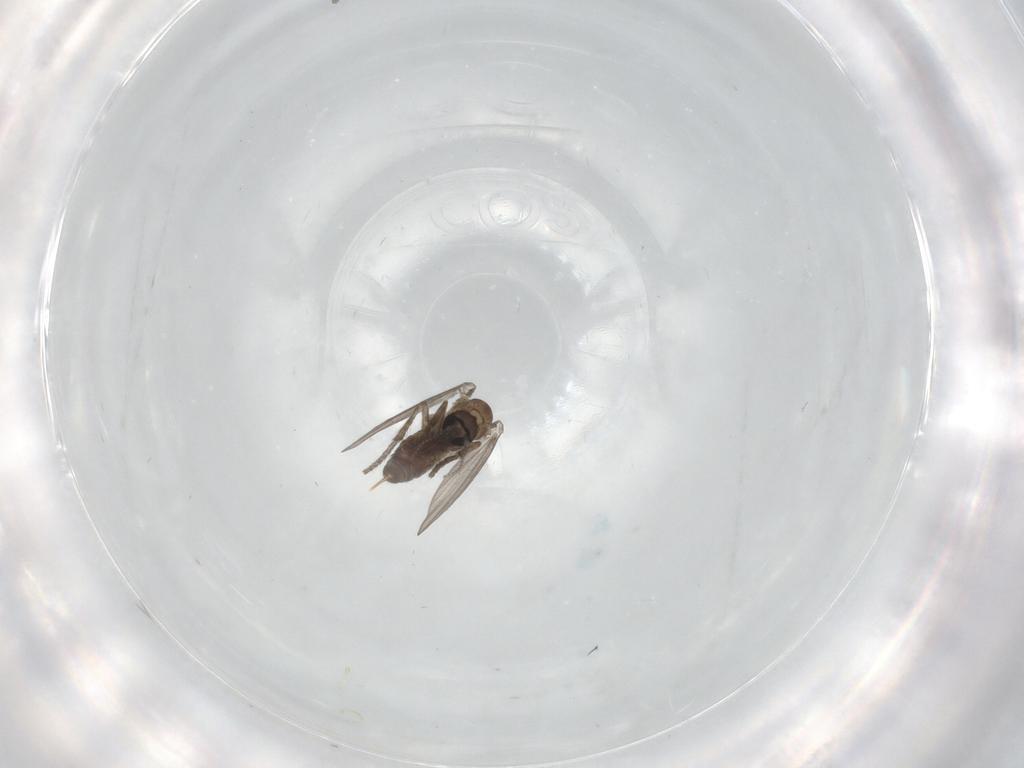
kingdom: Animalia
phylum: Arthropoda
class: Insecta
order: Diptera
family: Psychodidae
